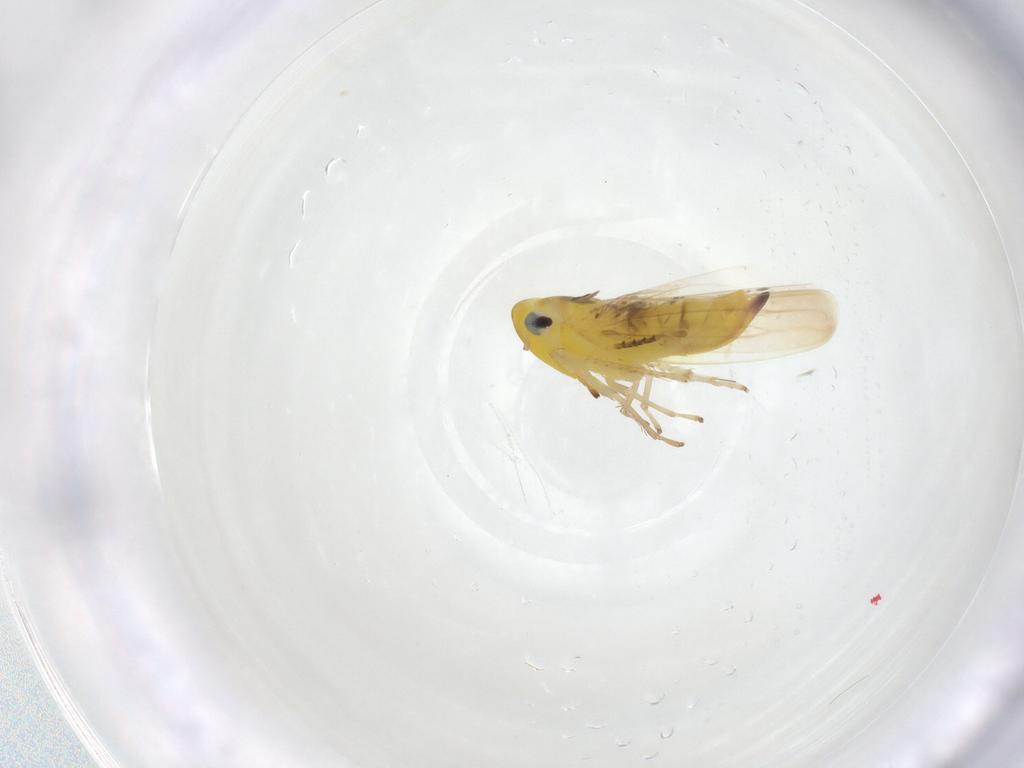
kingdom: Animalia
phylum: Arthropoda
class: Insecta
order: Hemiptera
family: Cicadellidae
